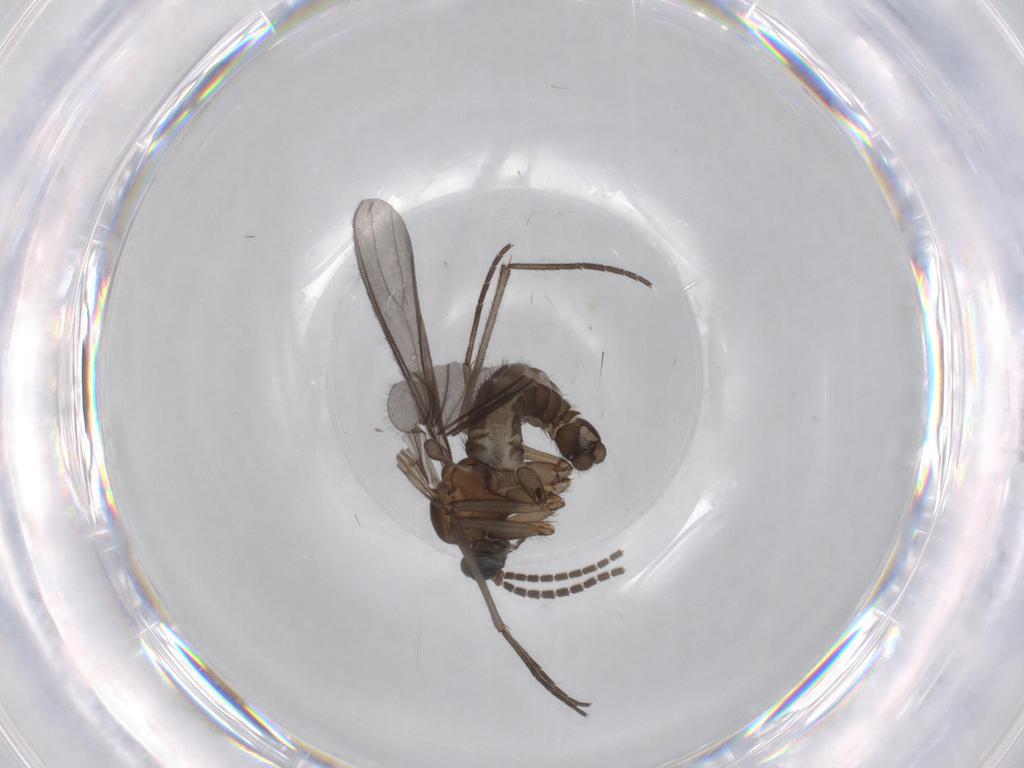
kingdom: Animalia
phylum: Arthropoda
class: Insecta
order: Diptera
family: Sciaridae
